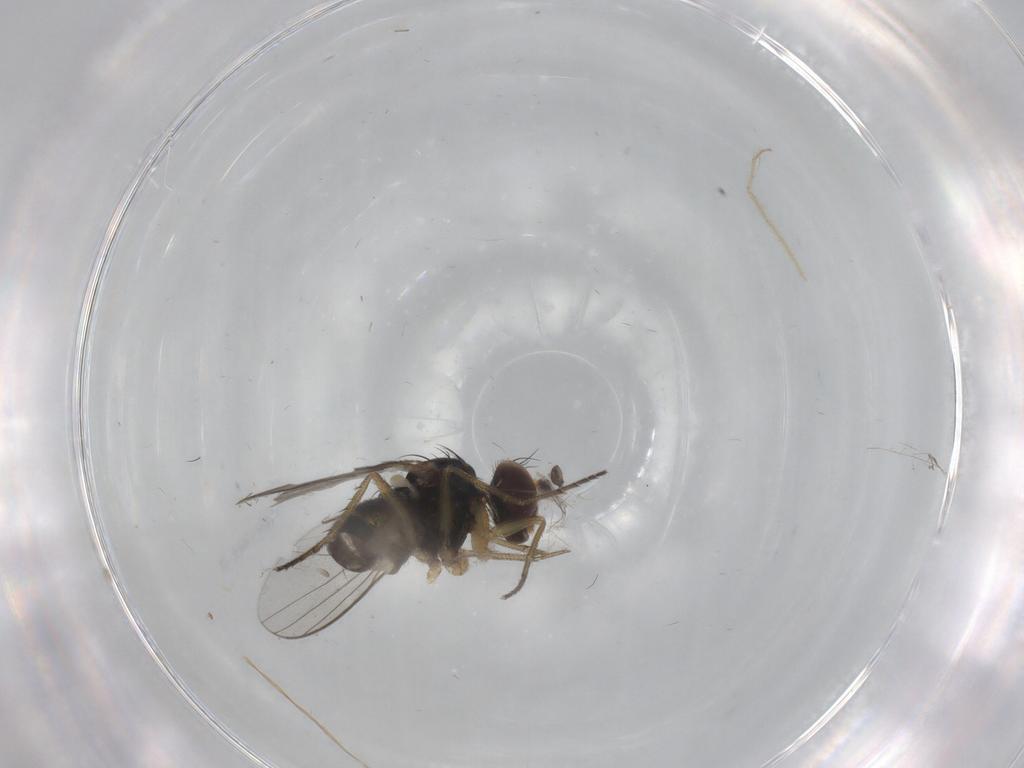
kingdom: Animalia
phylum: Arthropoda
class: Insecta
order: Diptera
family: Dolichopodidae
